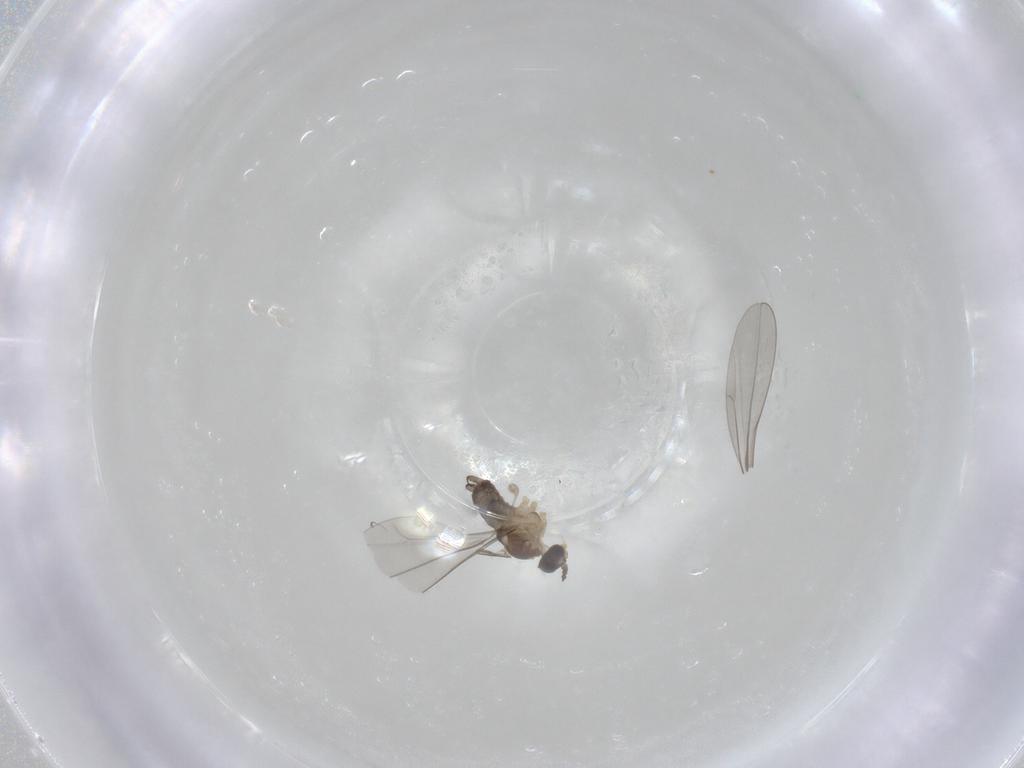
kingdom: Animalia
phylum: Arthropoda
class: Insecta
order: Diptera
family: Cecidomyiidae
